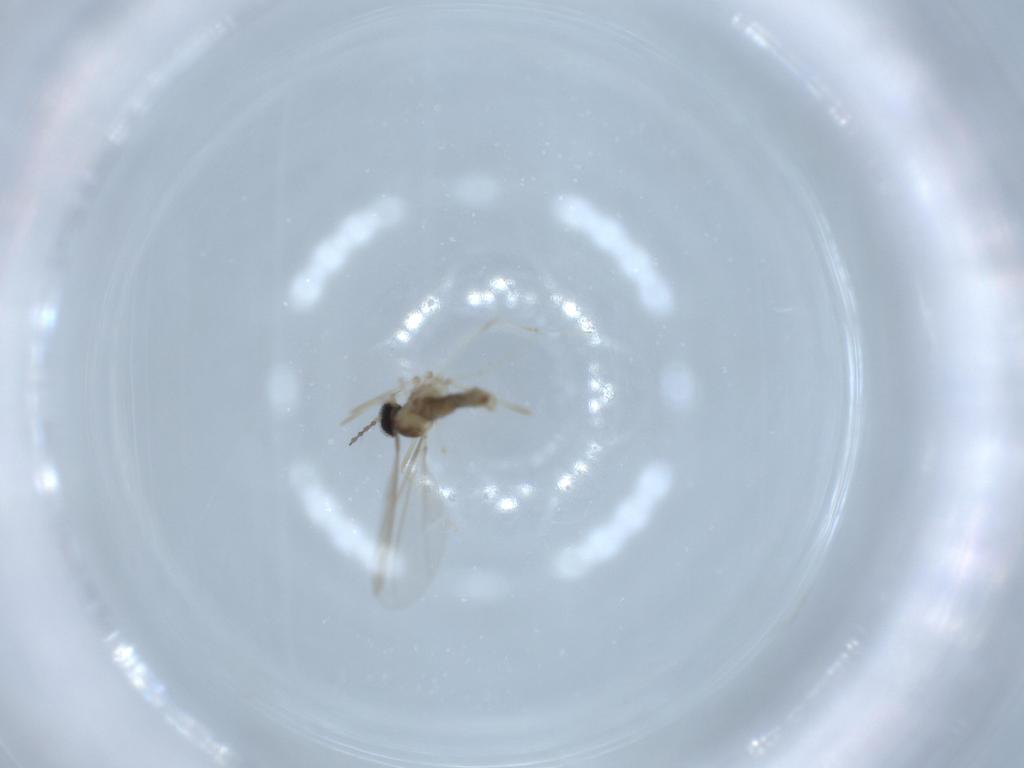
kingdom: Animalia
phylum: Arthropoda
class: Insecta
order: Diptera
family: Cecidomyiidae
